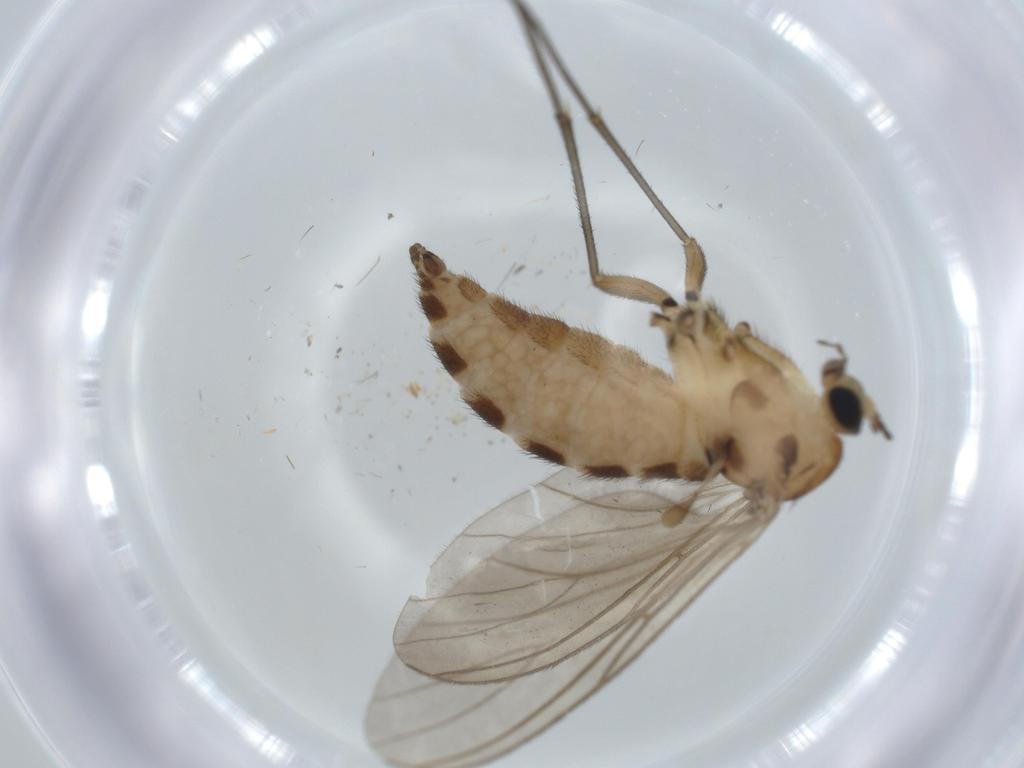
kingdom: Animalia
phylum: Arthropoda
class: Insecta
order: Diptera
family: Sciaridae
